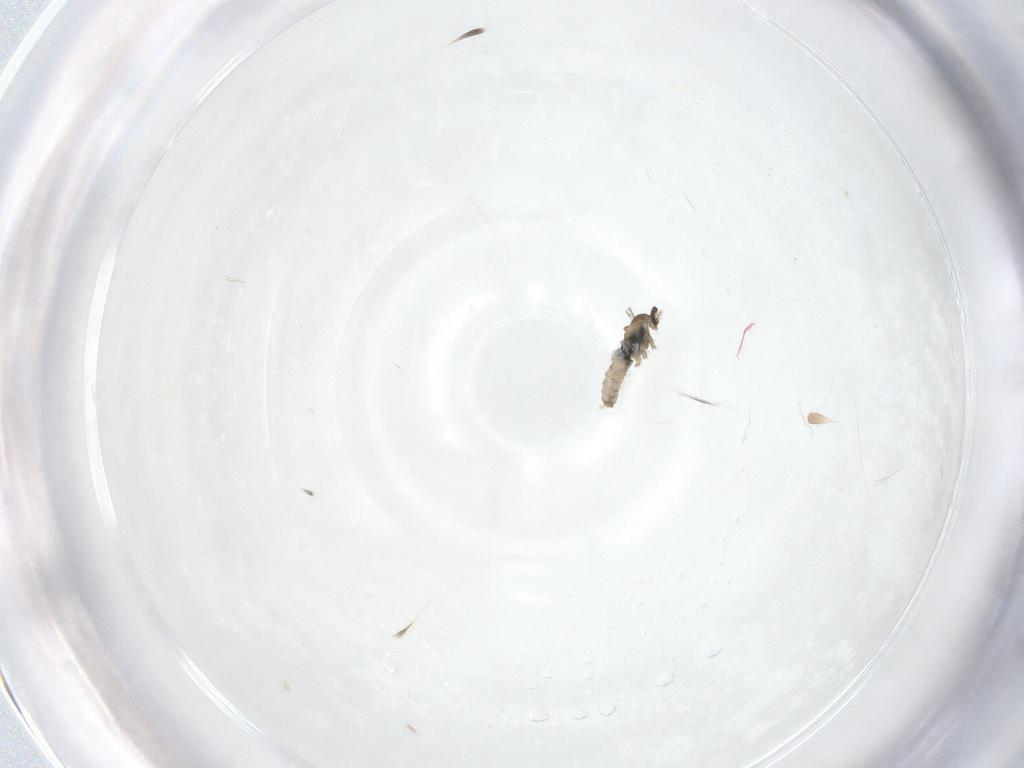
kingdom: Animalia
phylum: Arthropoda
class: Insecta
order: Diptera
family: Cecidomyiidae
